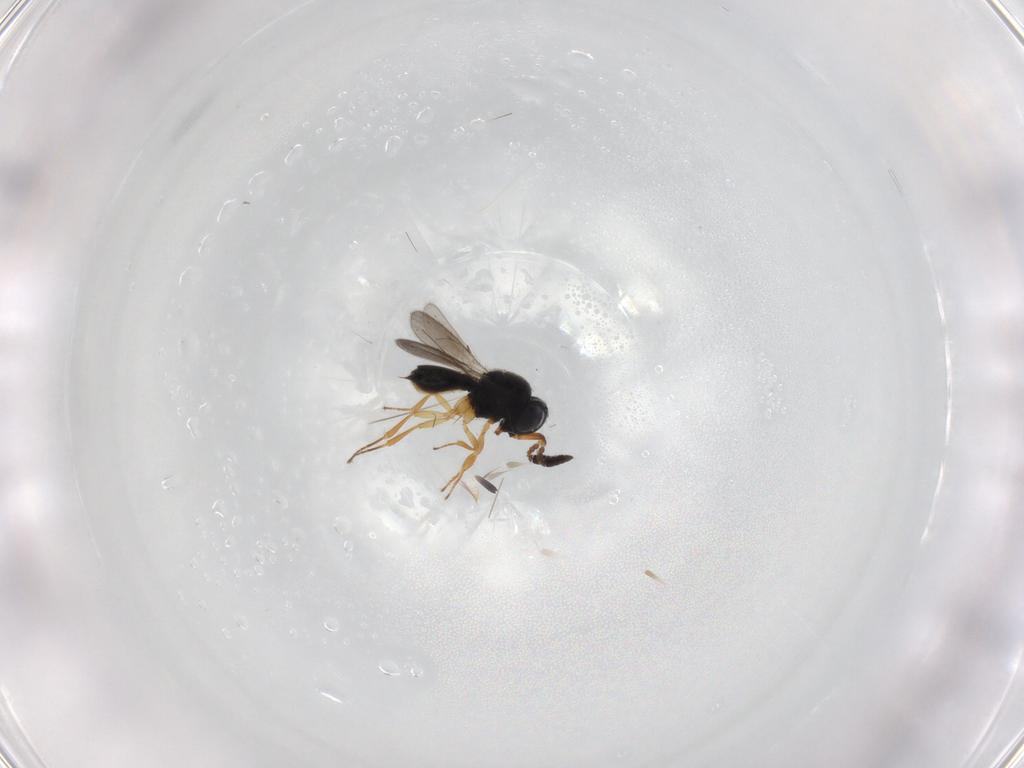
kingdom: Animalia
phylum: Arthropoda
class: Insecta
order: Hymenoptera
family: Scelionidae
